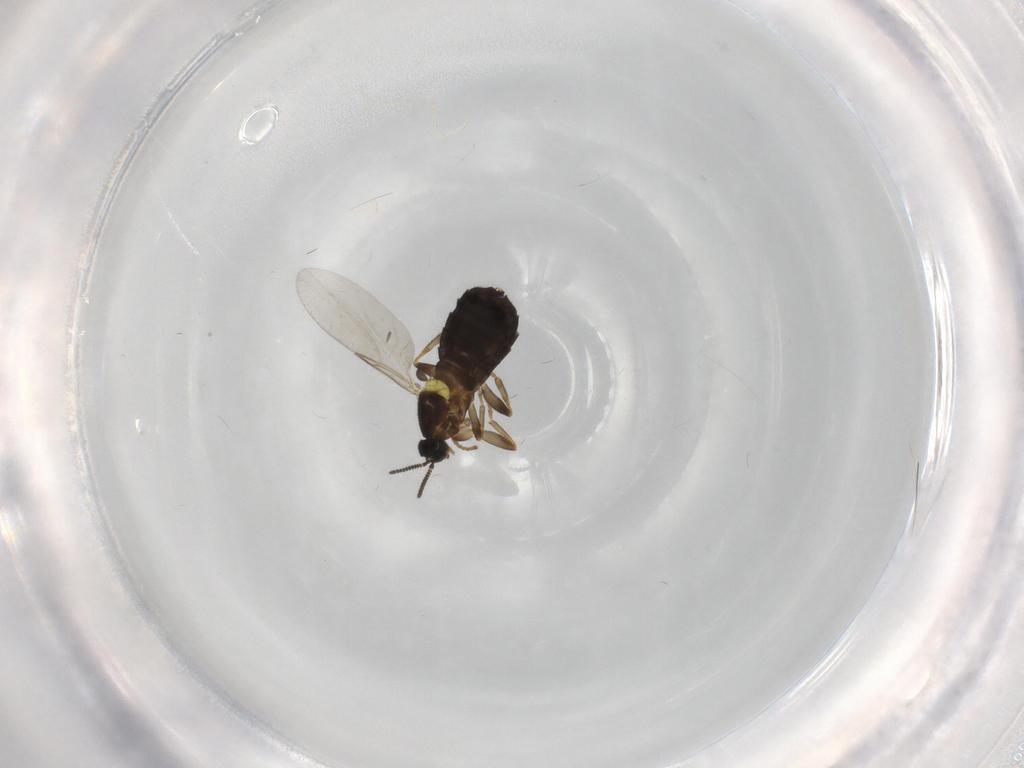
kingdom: Animalia
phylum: Arthropoda
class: Insecta
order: Diptera
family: Scatopsidae
